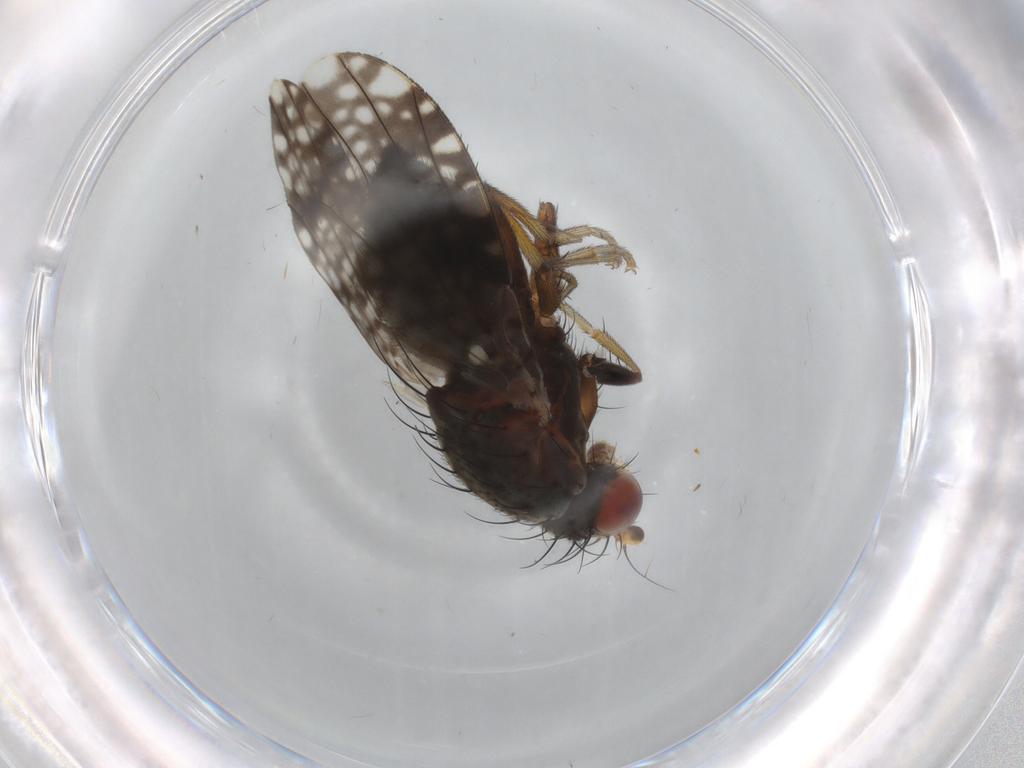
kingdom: Animalia
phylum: Arthropoda
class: Insecta
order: Diptera
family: Tephritidae
